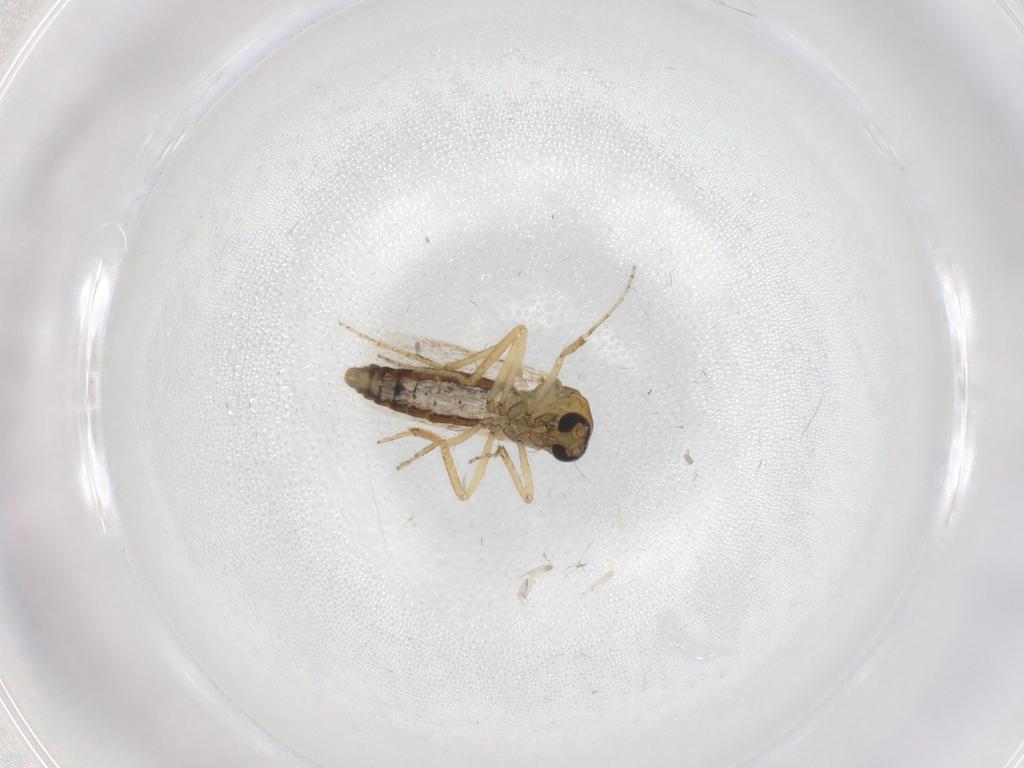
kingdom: Animalia
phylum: Arthropoda
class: Insecta
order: Diptera
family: Ceratopogonidae
